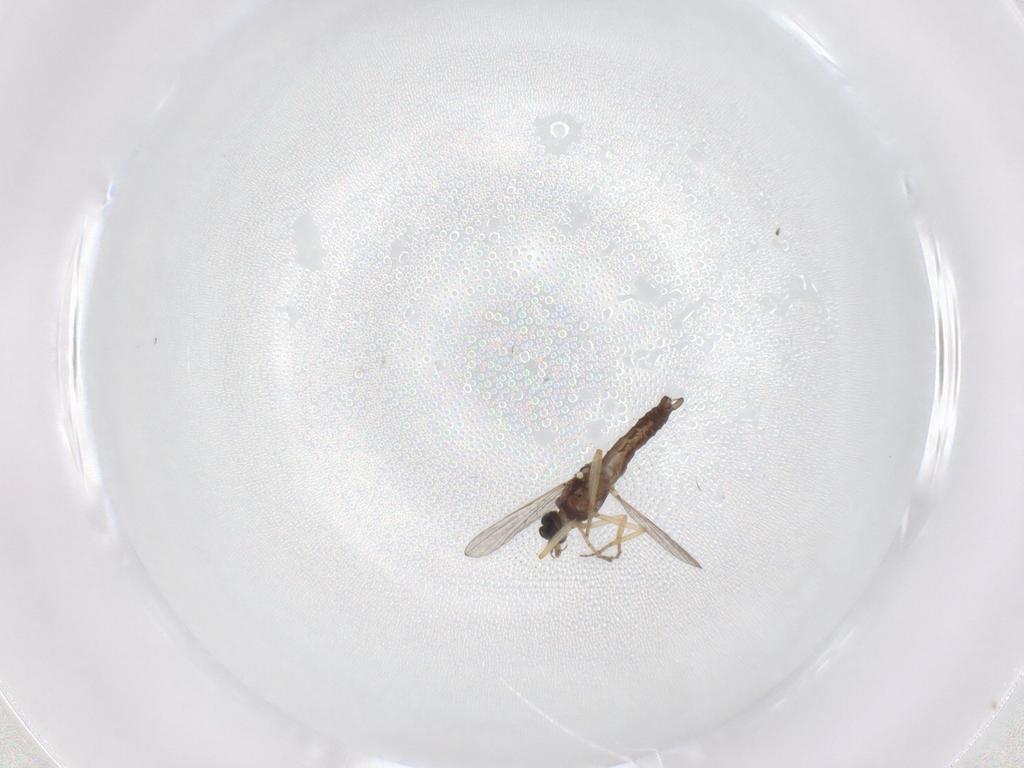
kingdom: Animalia
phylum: Arthropoda
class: Insecta
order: Diptera
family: Ceratopogonidae
